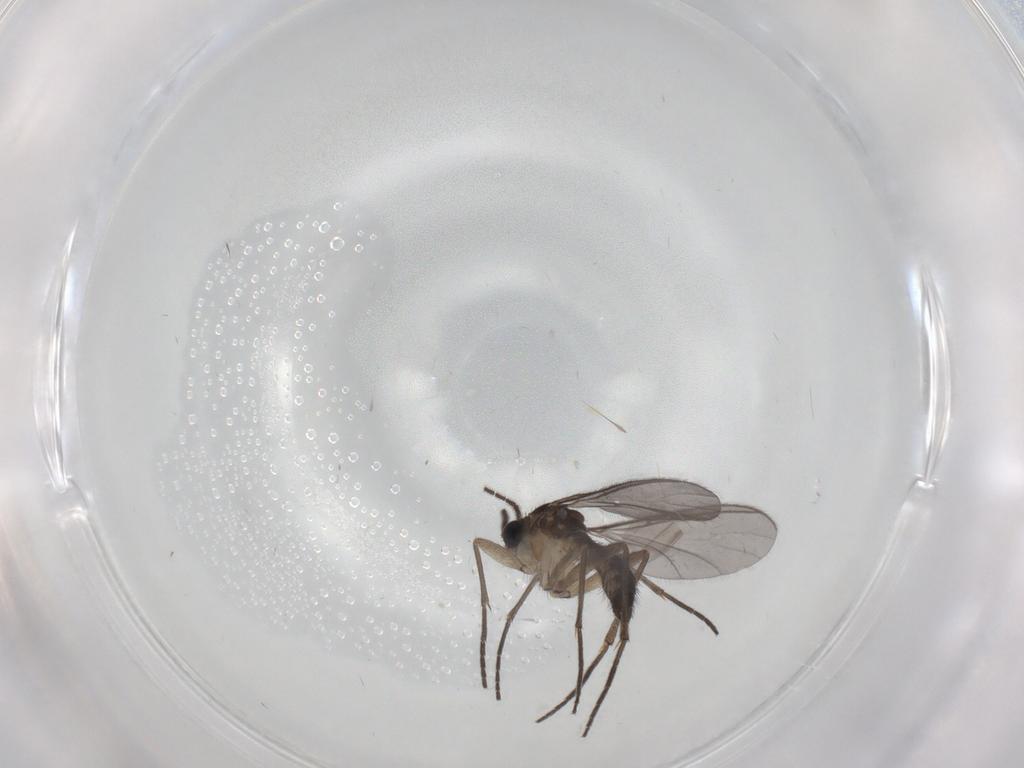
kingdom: Animalia
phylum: Arthropoda
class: Insecta
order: Diptera
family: Sciaridae
